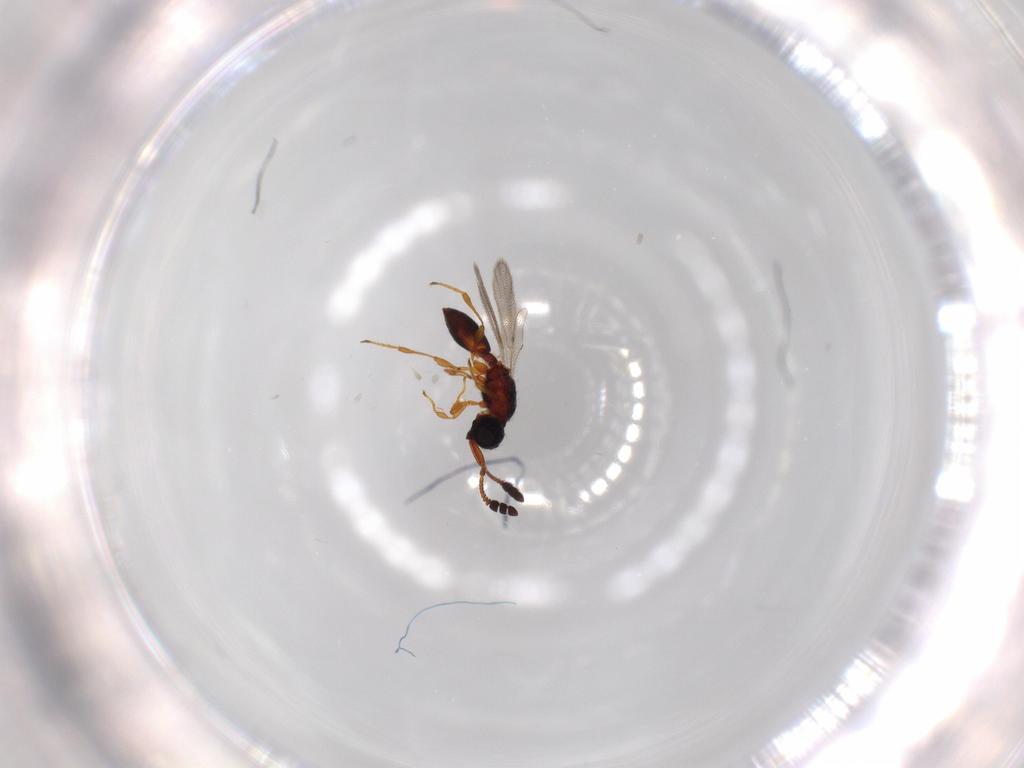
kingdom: Animalia
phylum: Arthropoda
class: Insecta
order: Hymenoptera
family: Diapriidae
